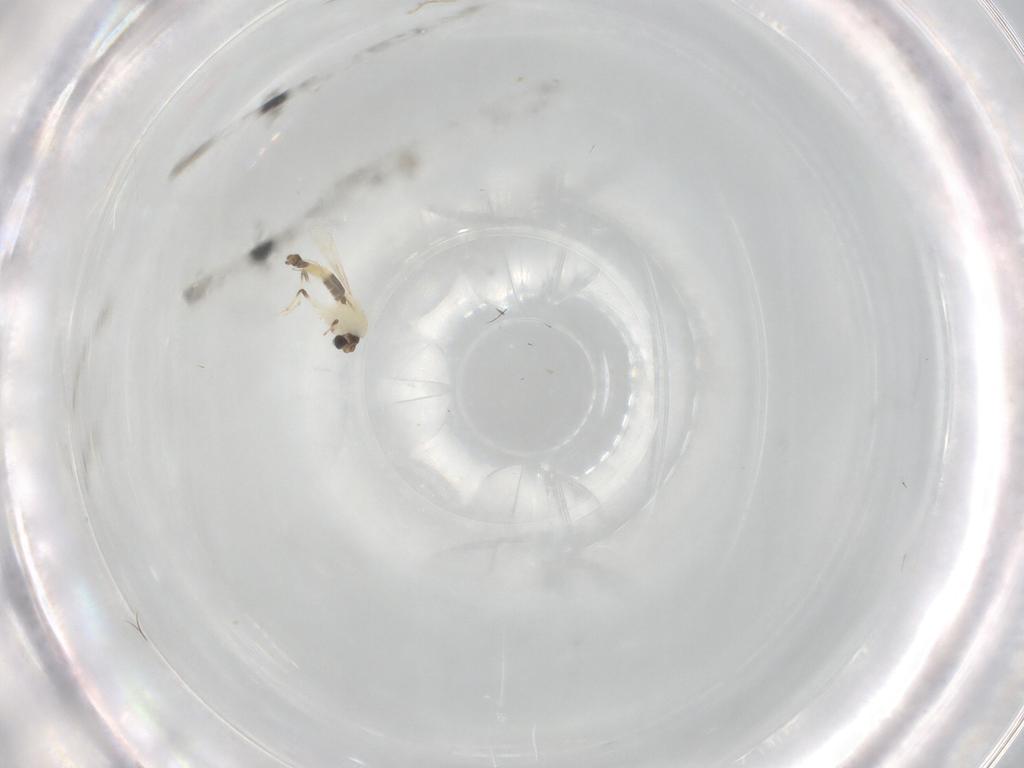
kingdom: Animalia
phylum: Arthropoda
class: Insecta
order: Diptera
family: Chironomidae
